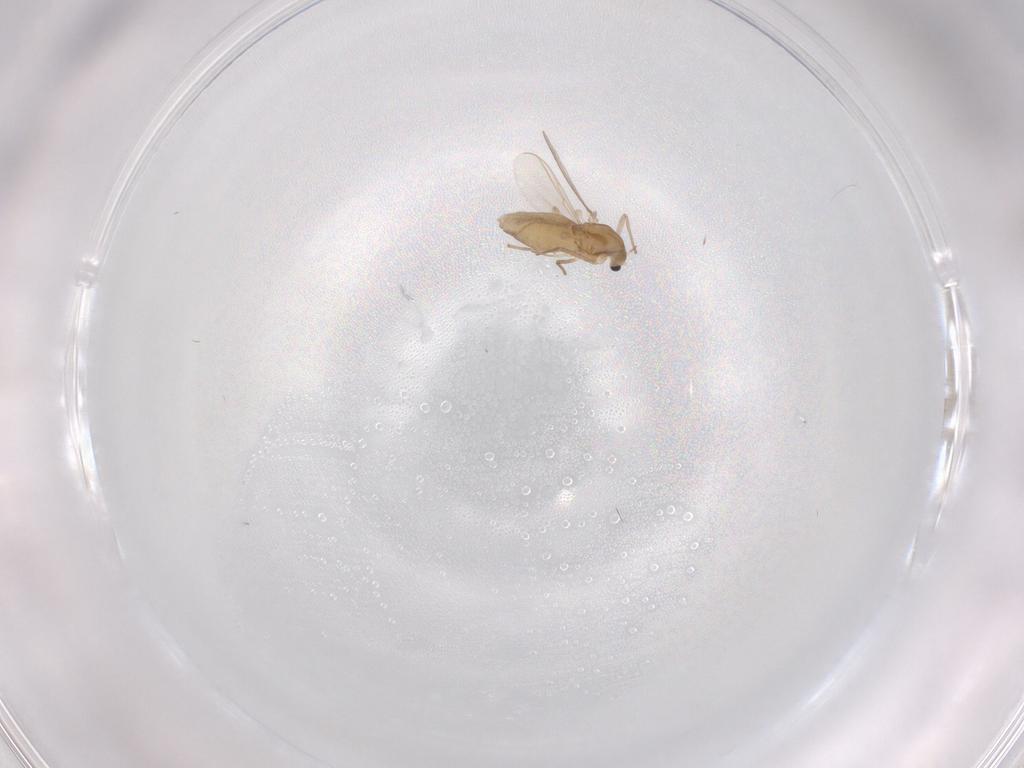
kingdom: Animalia
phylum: Arthropoda
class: Insecta
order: Diptera
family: Chironomidae
